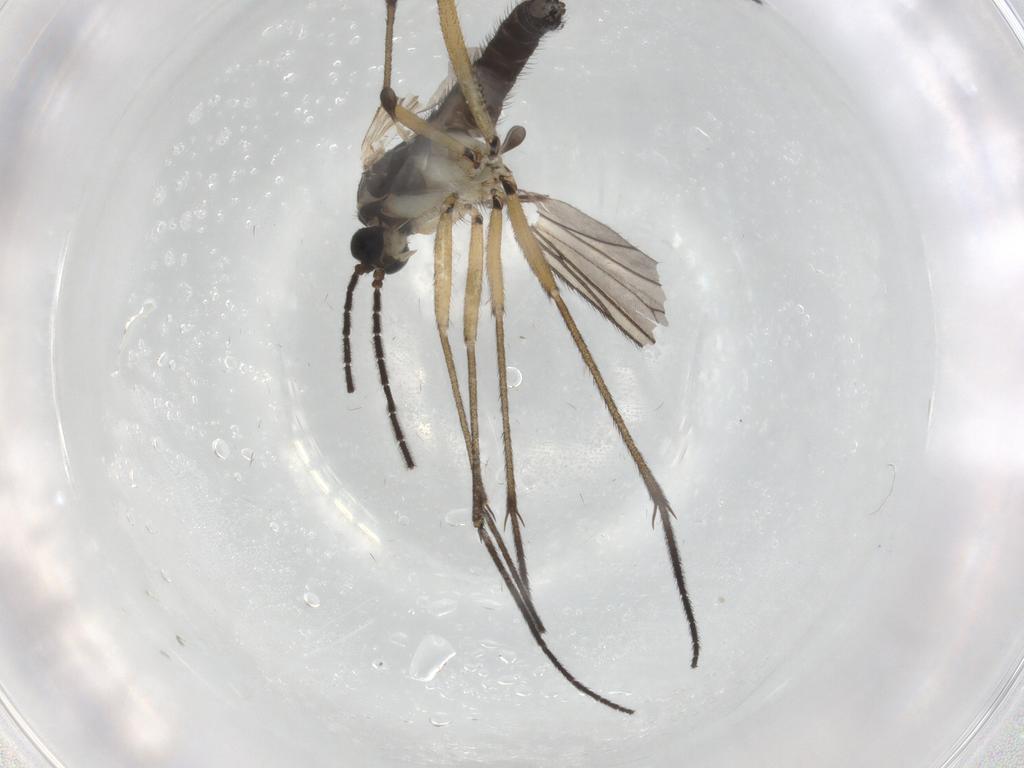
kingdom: Animalia
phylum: Arthropoda
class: Insecta
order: Diptera
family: Sciaridae
